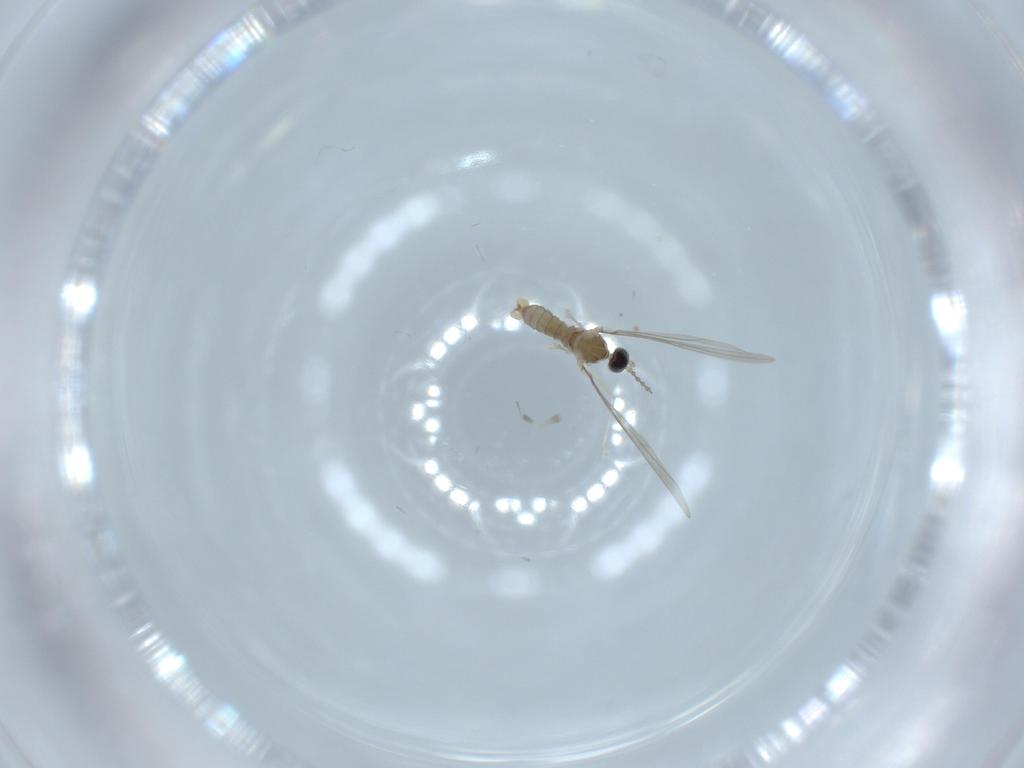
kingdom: Animalia
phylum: Arthropoda
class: Insecta
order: Diptera
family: Cecidomyiidae
